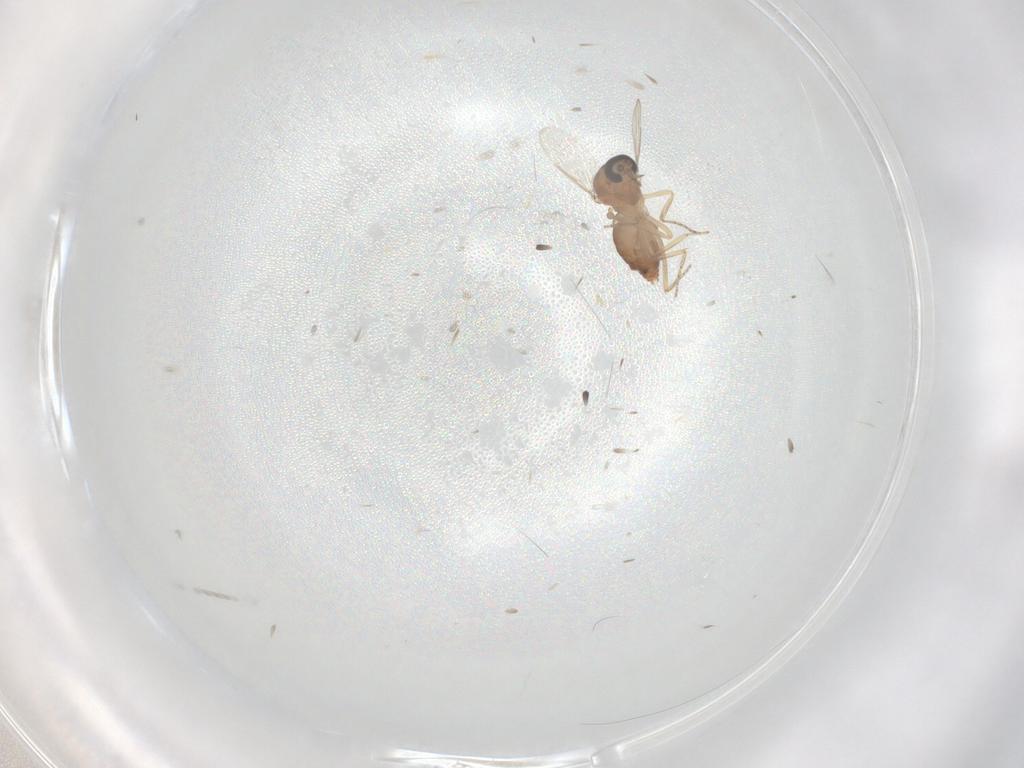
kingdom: Animalia
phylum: Arthropoda
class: Insecta
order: Diptera
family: Ceratopogonidae
